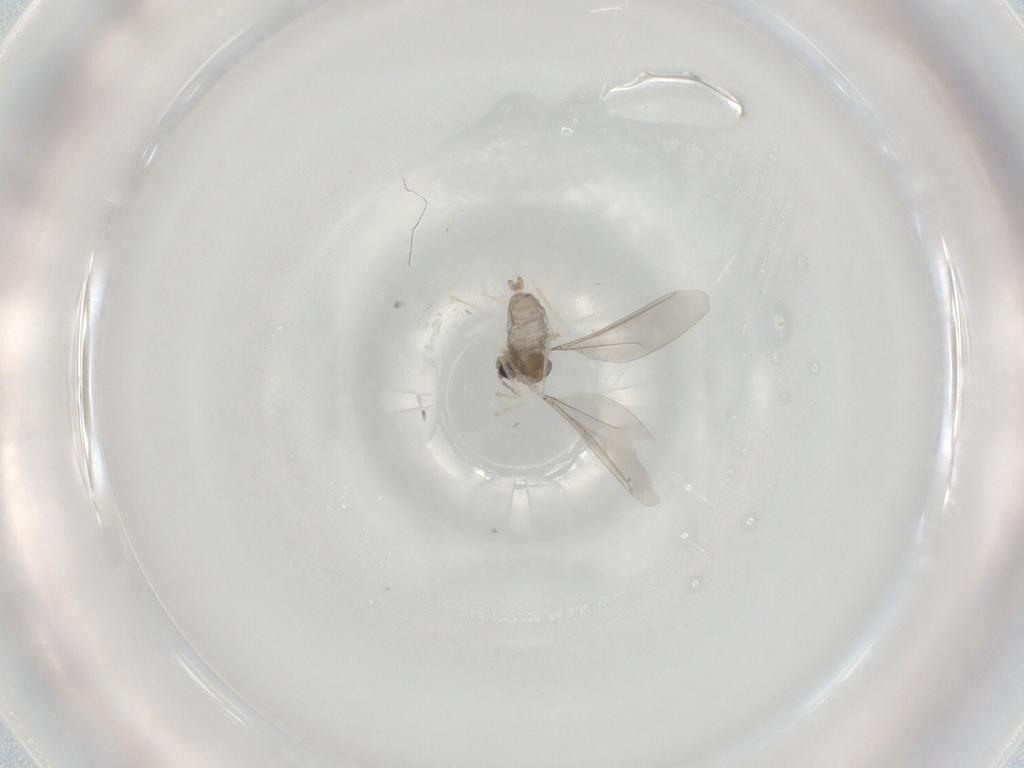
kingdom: Animalia
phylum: Arthropoda
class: Insecta
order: Diptera
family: Cecidomyiidae
